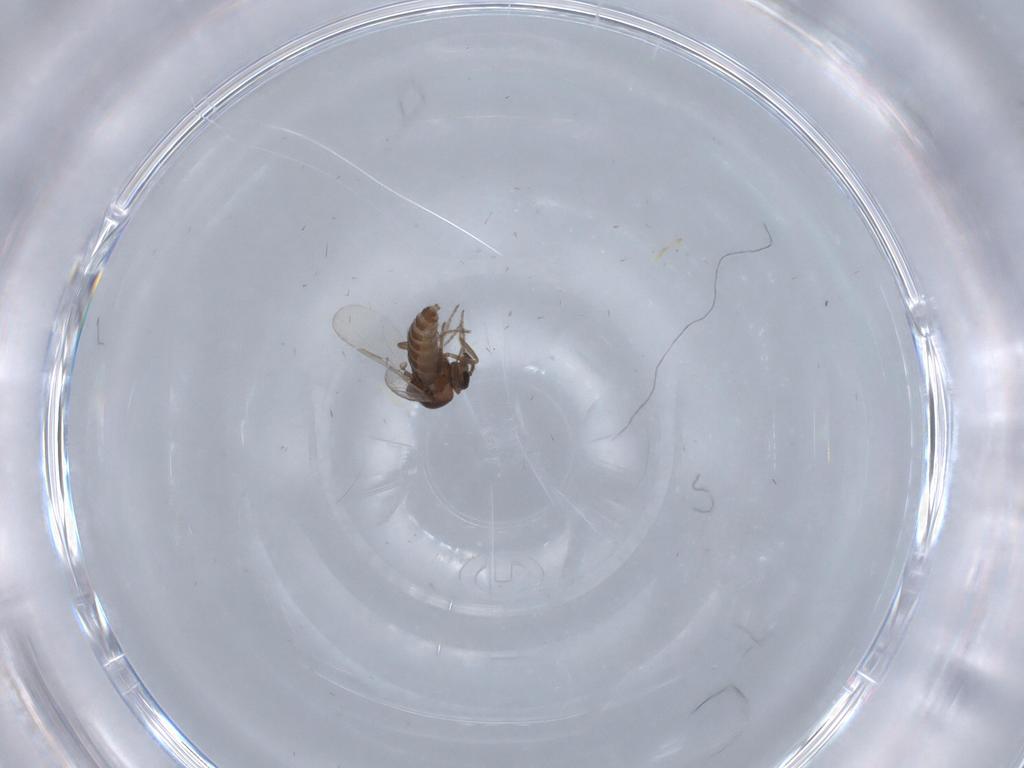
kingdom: Animalia
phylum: Arthropoda
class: Insecta
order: Diptera
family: Ceratopogonidae
